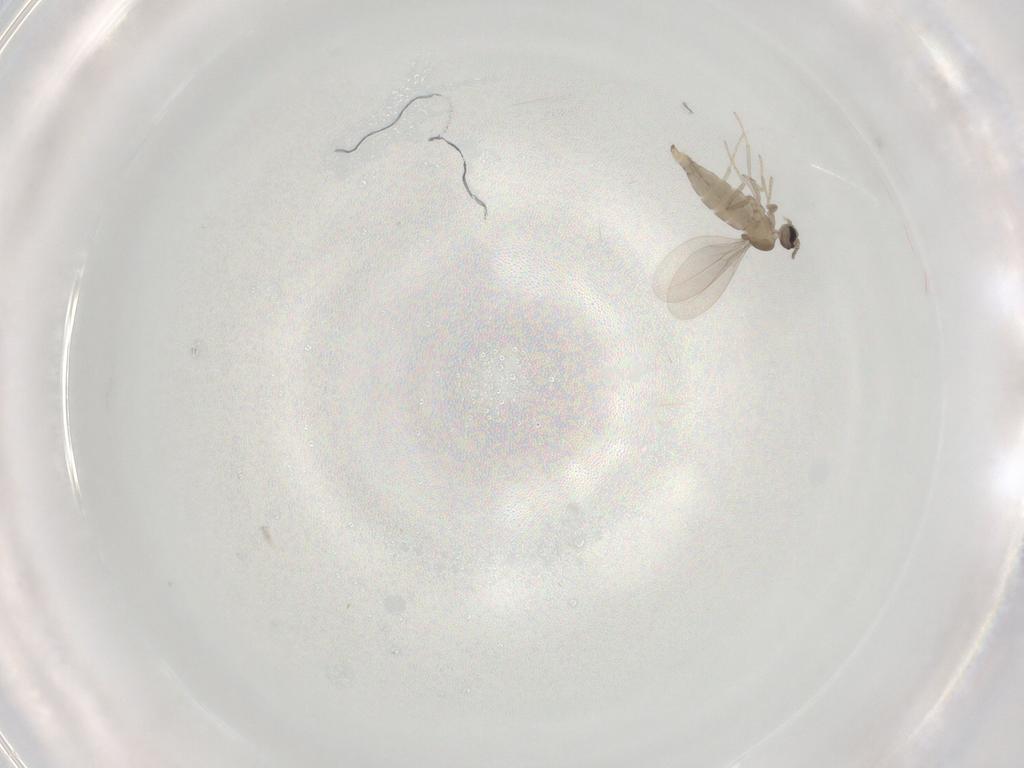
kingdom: Animalia
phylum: Arthropoda
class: Insecta
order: Diptera
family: Cecidomyiidae
